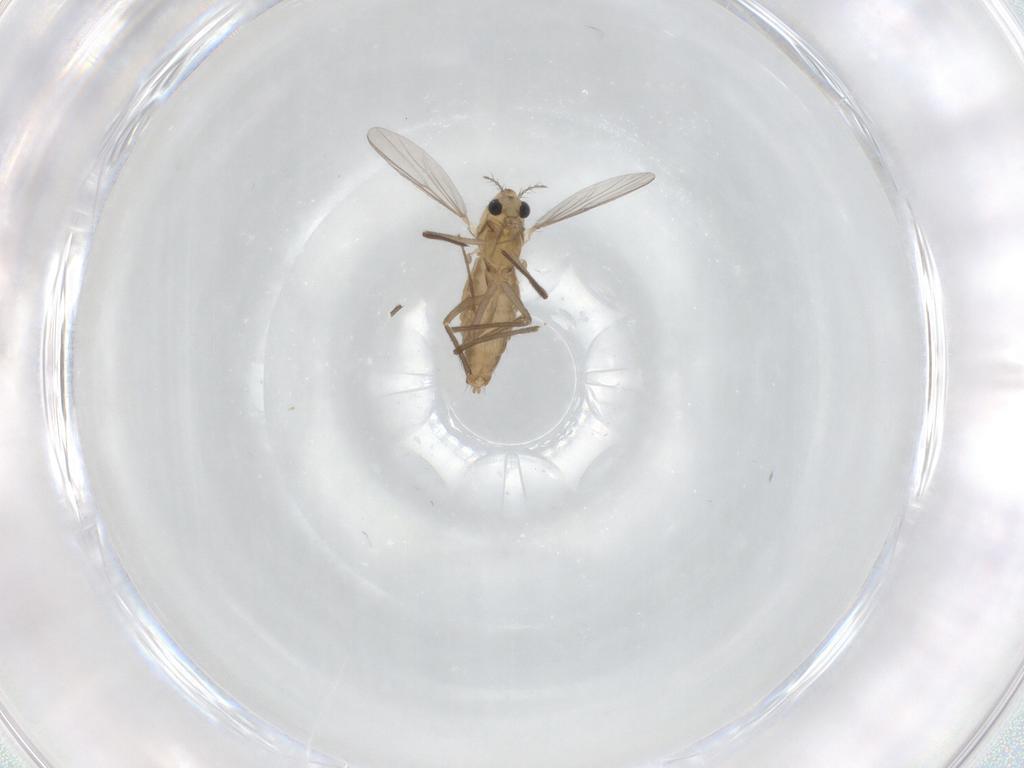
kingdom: Animalia
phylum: Arthropoda
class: Insecta
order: Diptera
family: Chironomidae
